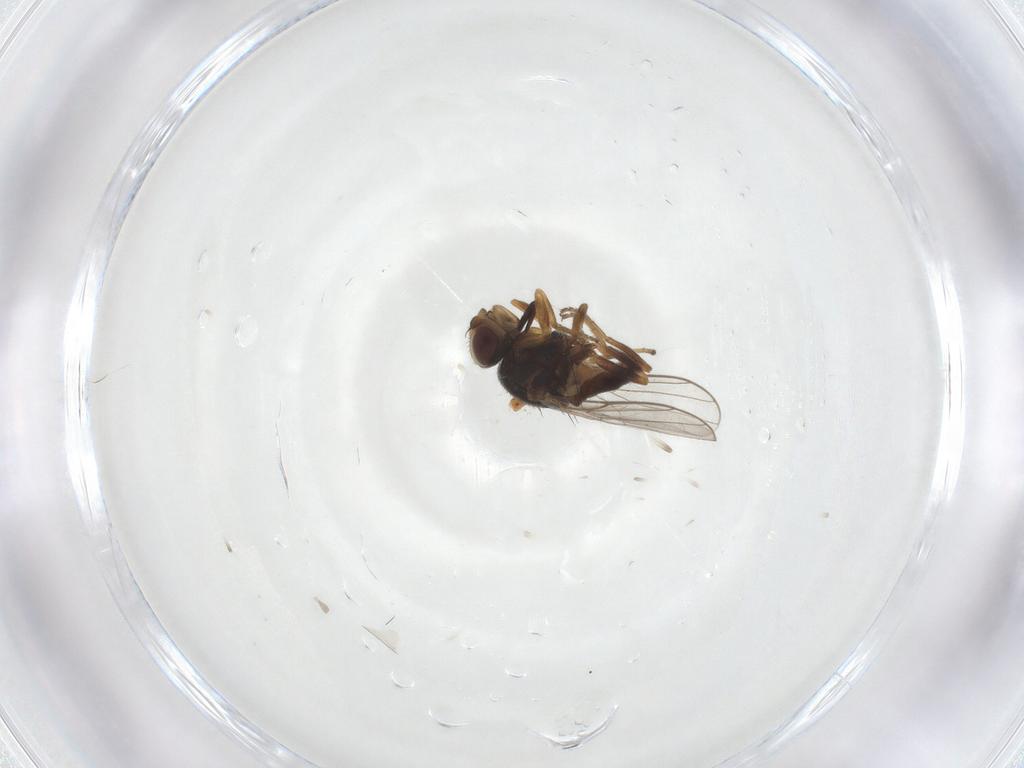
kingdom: Animalia
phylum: Arthropoda
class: Insecta
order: Diptera
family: Chloropidae
